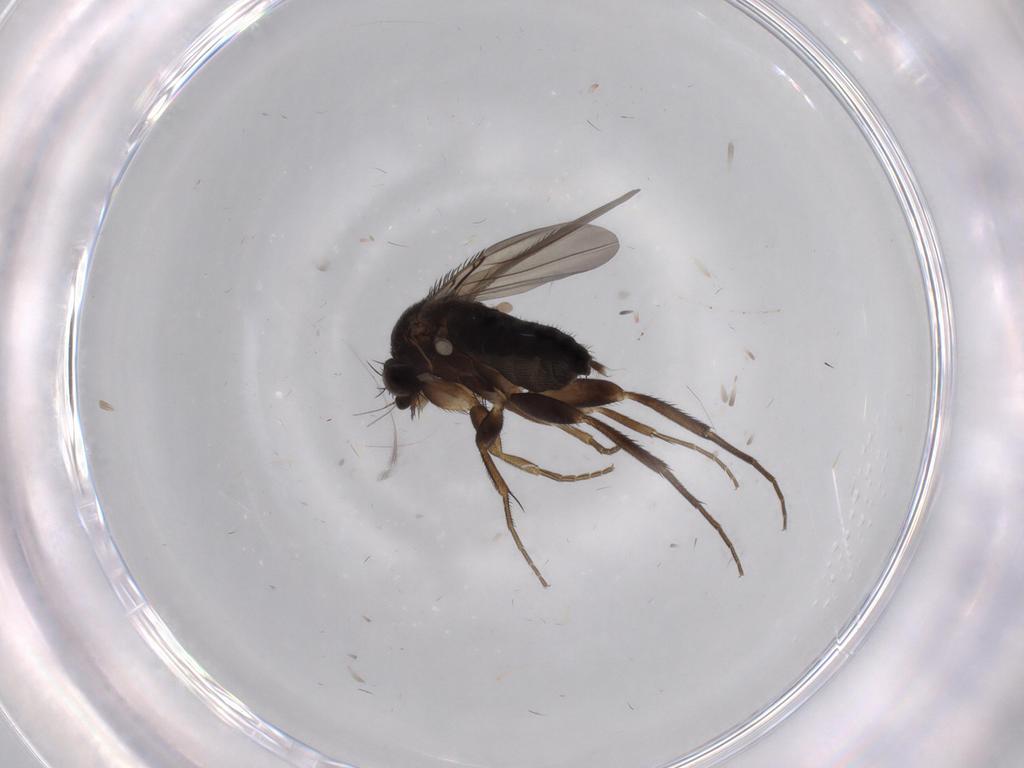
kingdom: Animalia
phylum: Arthropoda
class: Insecta
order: Diptera
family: Phoridae
